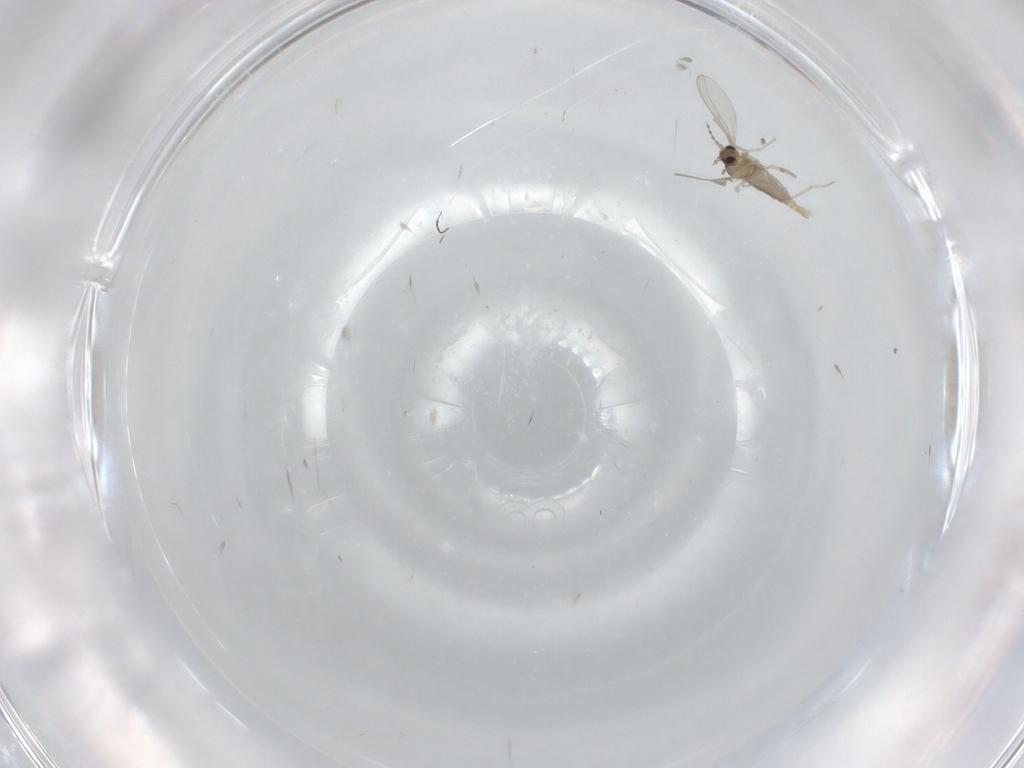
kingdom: Animalia
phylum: Arthropoda
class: Insecta
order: Diptera
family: Cecidomyiidae
